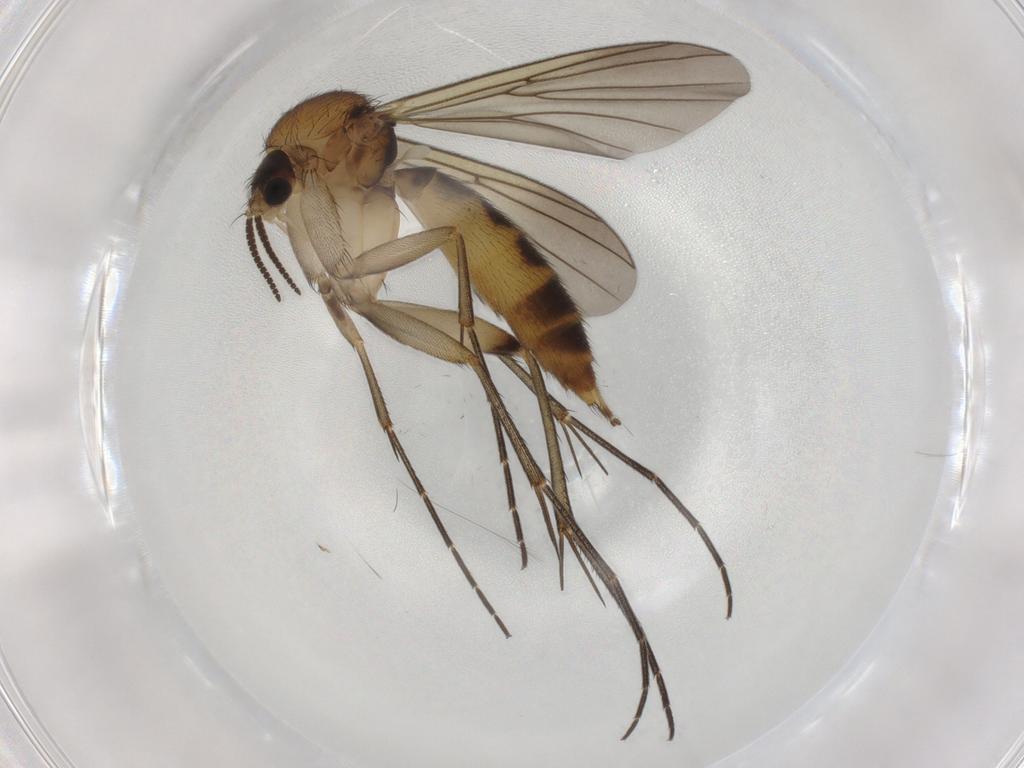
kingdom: Animalia
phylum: Arthropoda
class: Insecta
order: Diptera
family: Mycetophilidae
